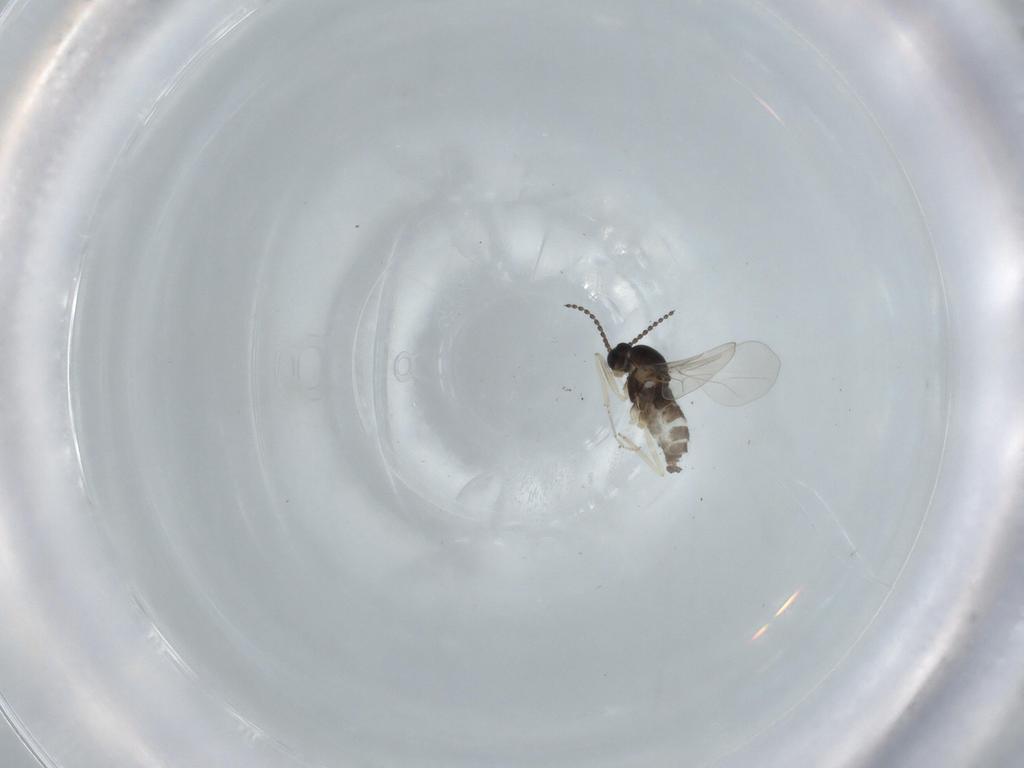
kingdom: Animalia
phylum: Arthropoda
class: Insecta
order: Diptera
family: Cecidomyiidae
